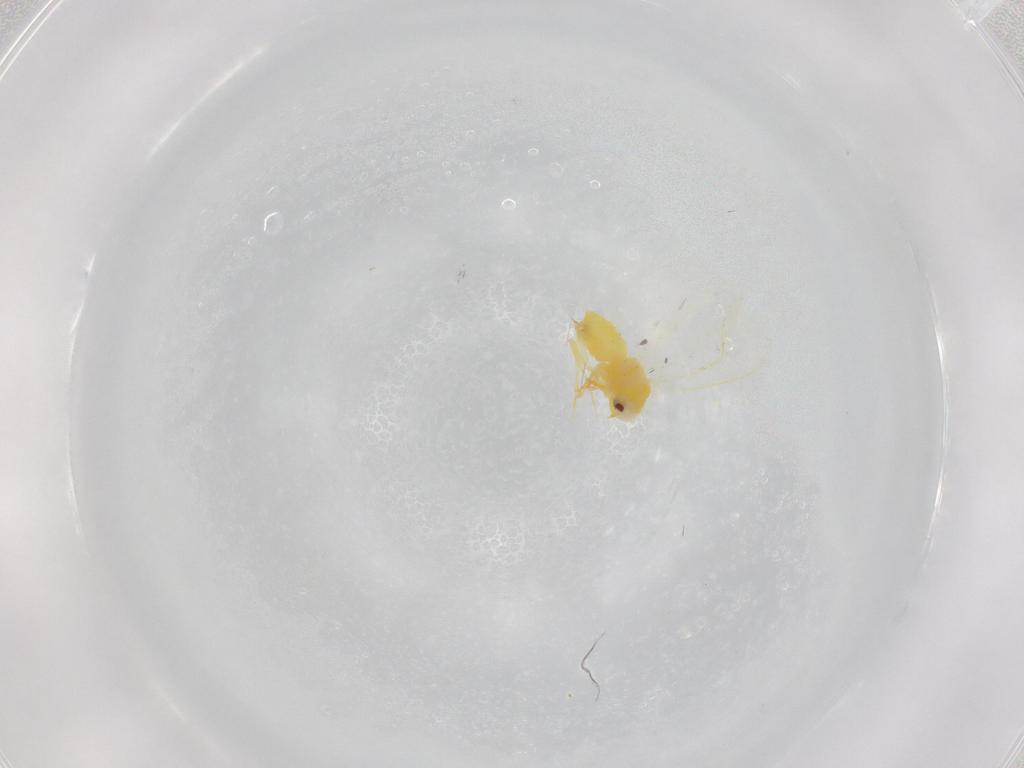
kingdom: Animalia
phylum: Arthropoda
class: Insecta
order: Hemiptera
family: Aleyrodidae
